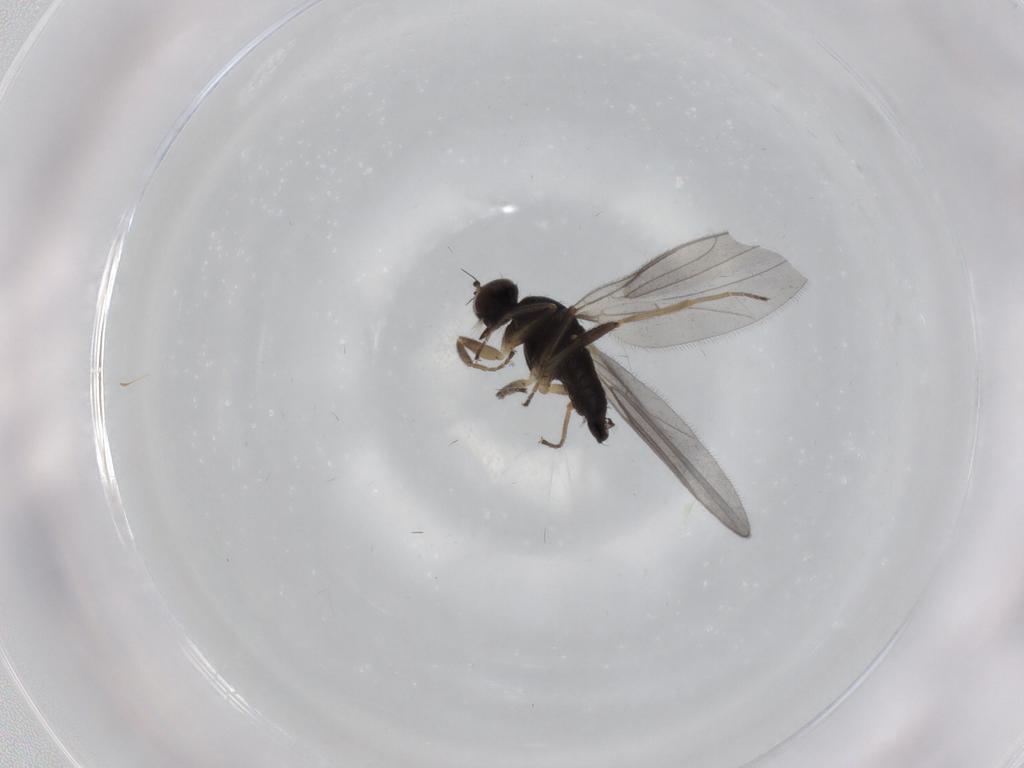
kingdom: Animalia
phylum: Arthropoda
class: Insecta
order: Diptera
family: Hybotidae
